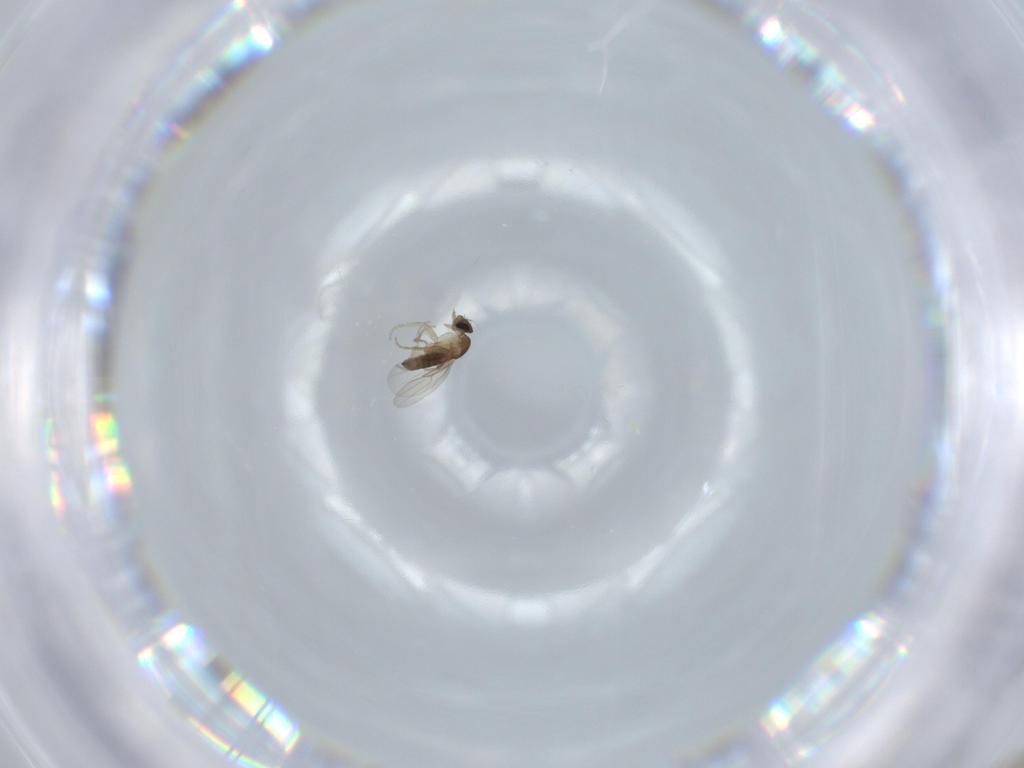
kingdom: Animalia
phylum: Arthropoda
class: Insecta
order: Diptera
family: Phoridae
